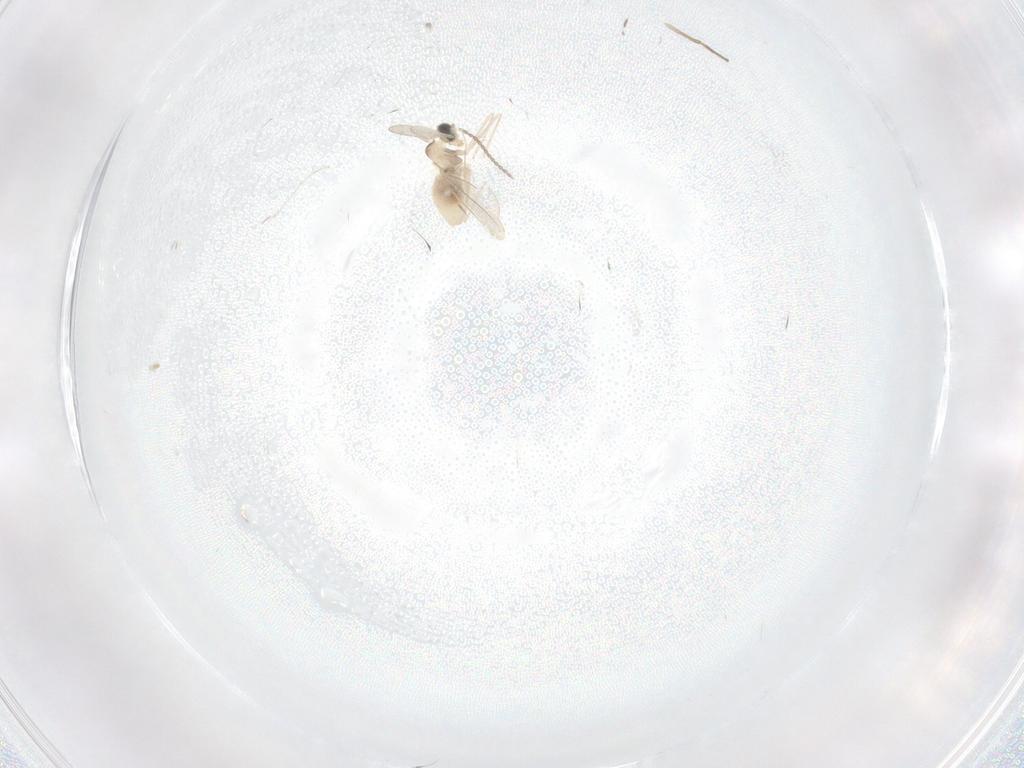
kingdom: Animalia
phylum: Arthropoda
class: Insecta
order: Diptera
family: Cecidomyiidae
